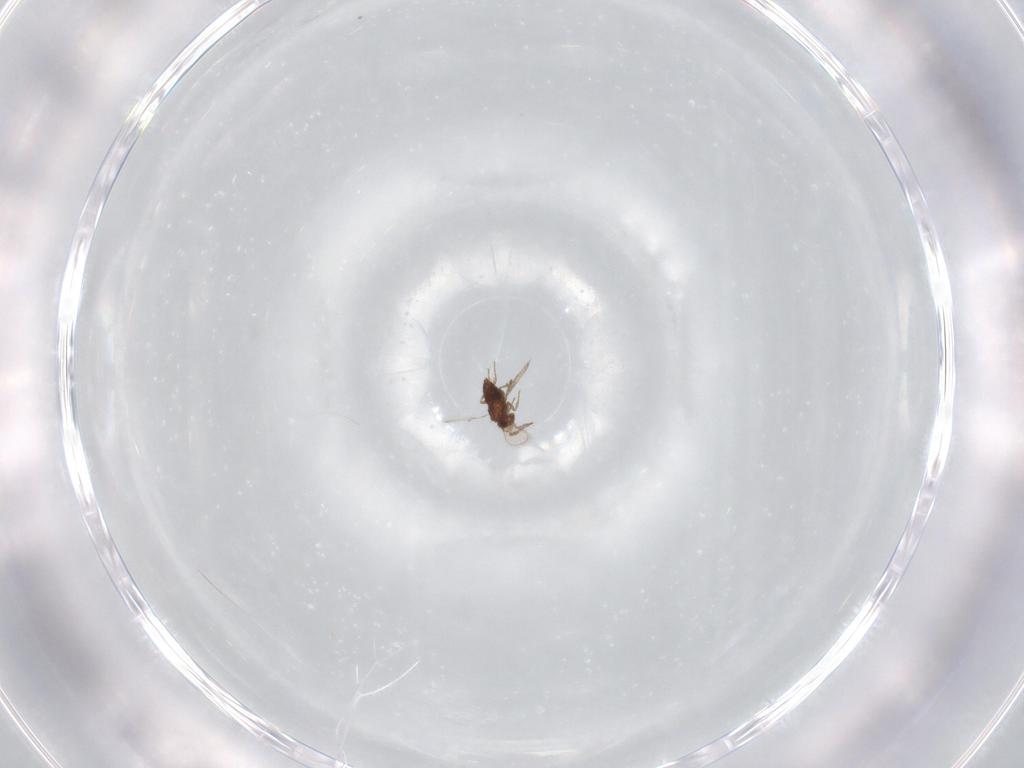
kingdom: Animalia
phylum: Arthropoda
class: Insecta
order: Hymenoptera
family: Trichogrammatidae
